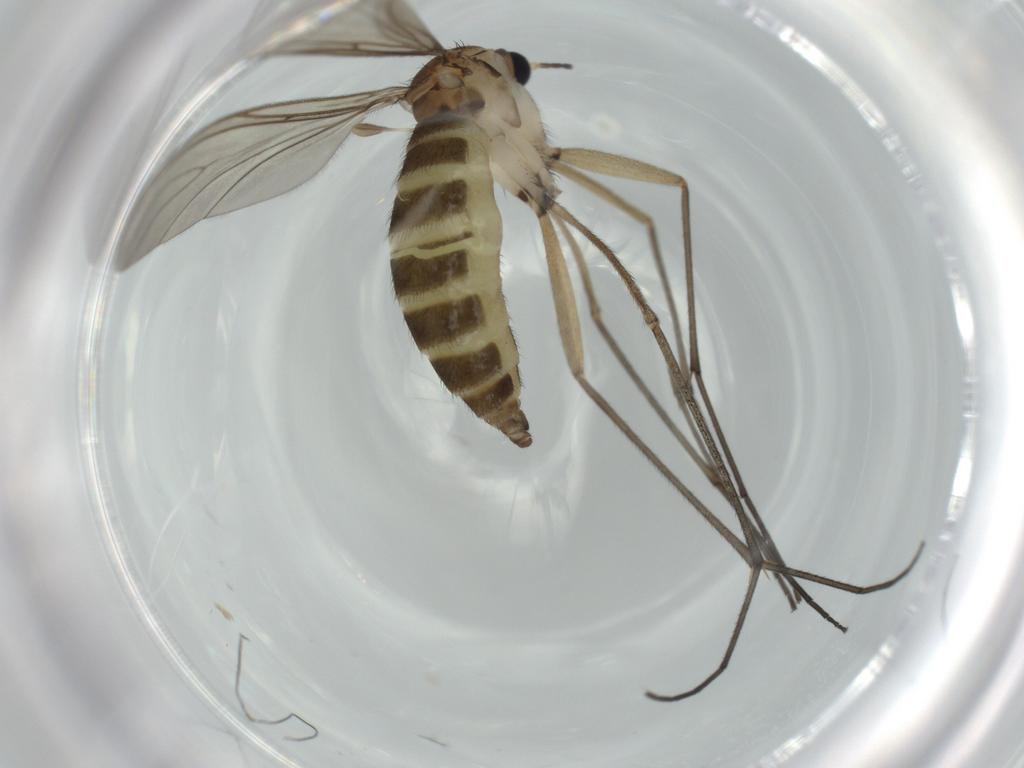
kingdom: Animalia
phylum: Arthropoda
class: Insecta
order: Diptera
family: Sciaridae
